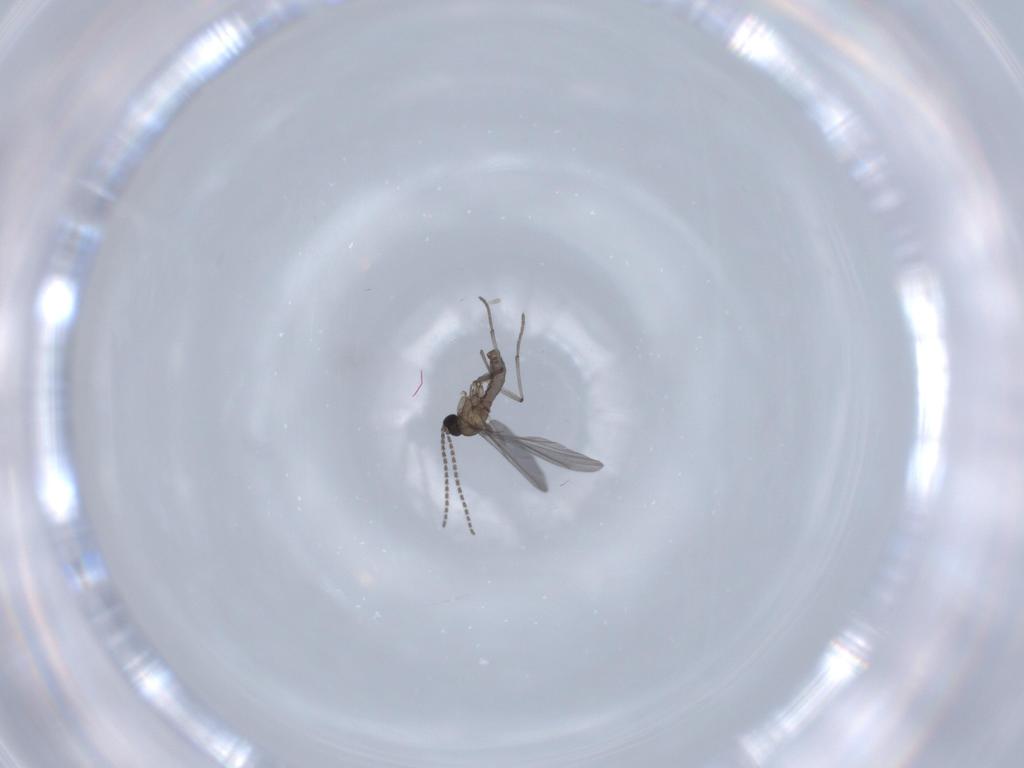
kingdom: Animalia
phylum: Arthropoda
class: Insecta
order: Diptera
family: Sciaridae
